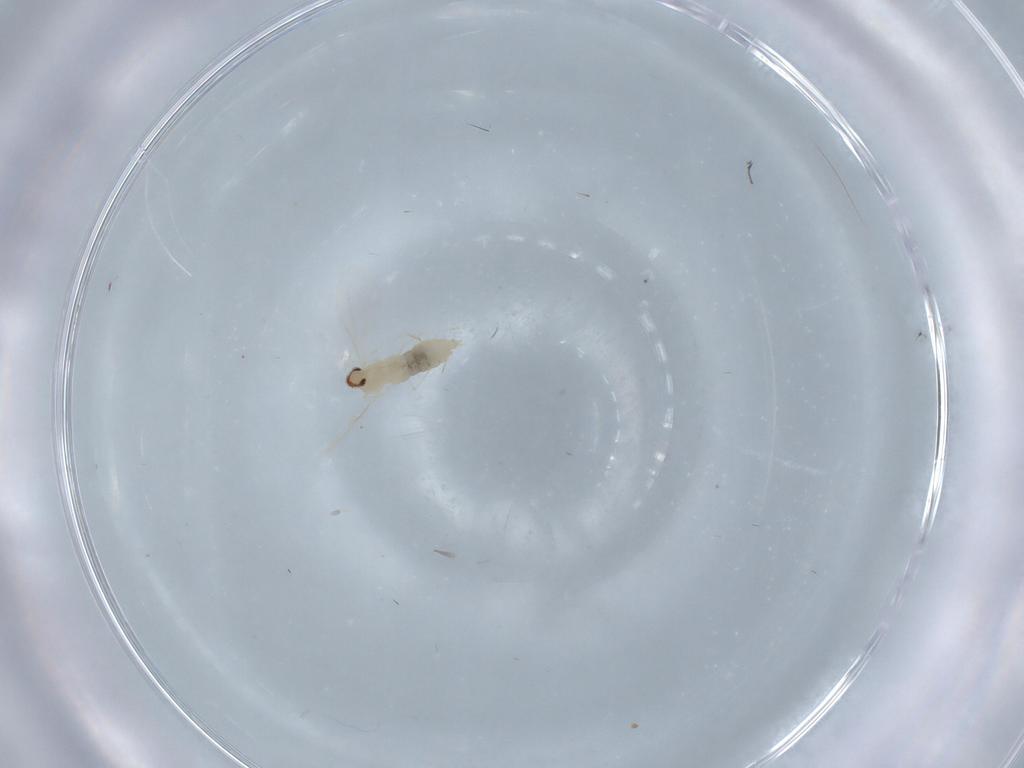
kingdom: Animalia
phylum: Arthropoda
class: Insecta
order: Diptera
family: Cecidomyiidae
